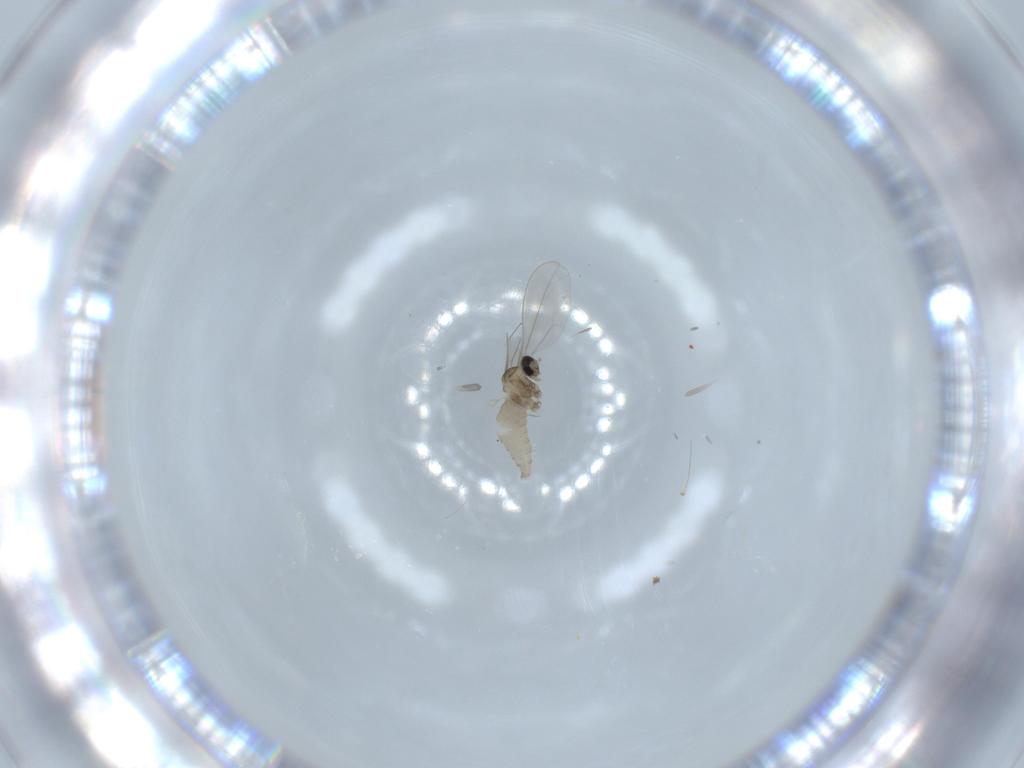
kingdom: Animalia
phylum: Arthropoda
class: Insecta
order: Diptera
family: Cecidomyiidae
